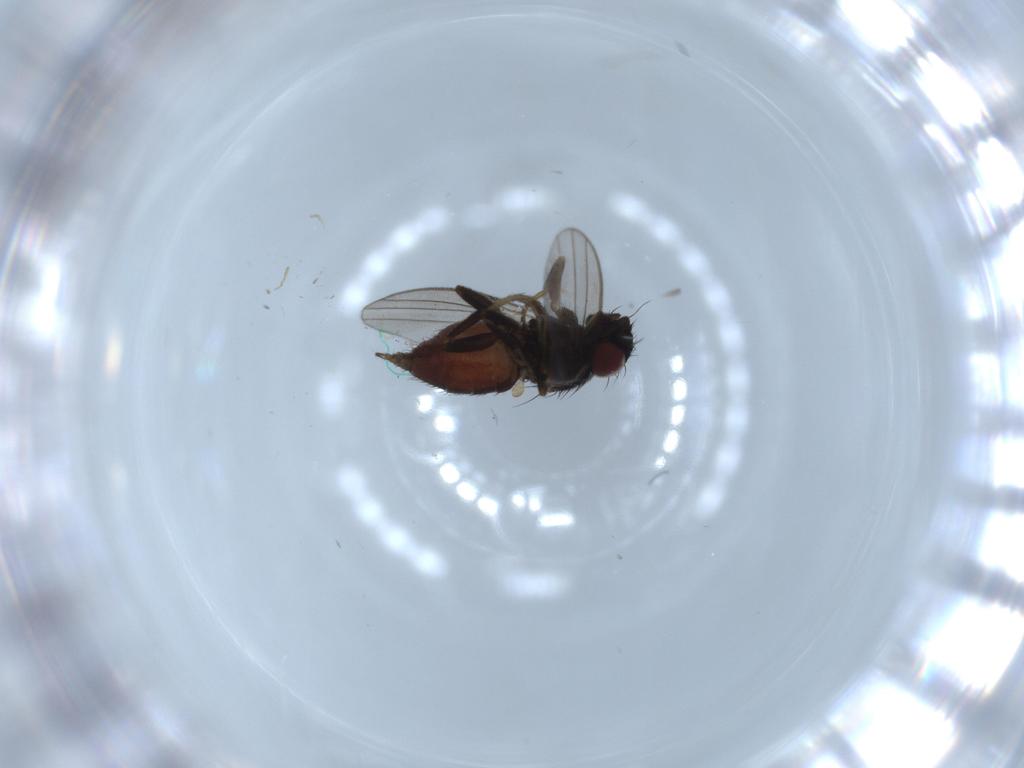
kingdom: Animalia
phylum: Arthropoda
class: Insecta
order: Diptera
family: Milichiidae
